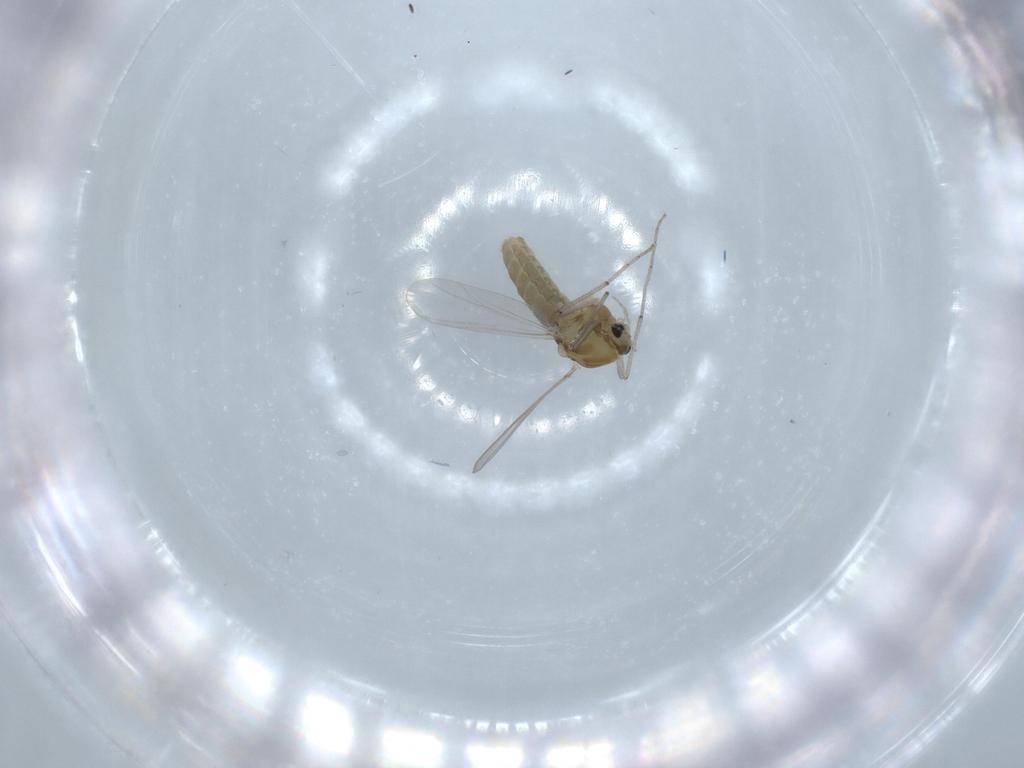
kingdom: Animalia
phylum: Arthropoda
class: Insecta
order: Diptera
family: Chironomidae
